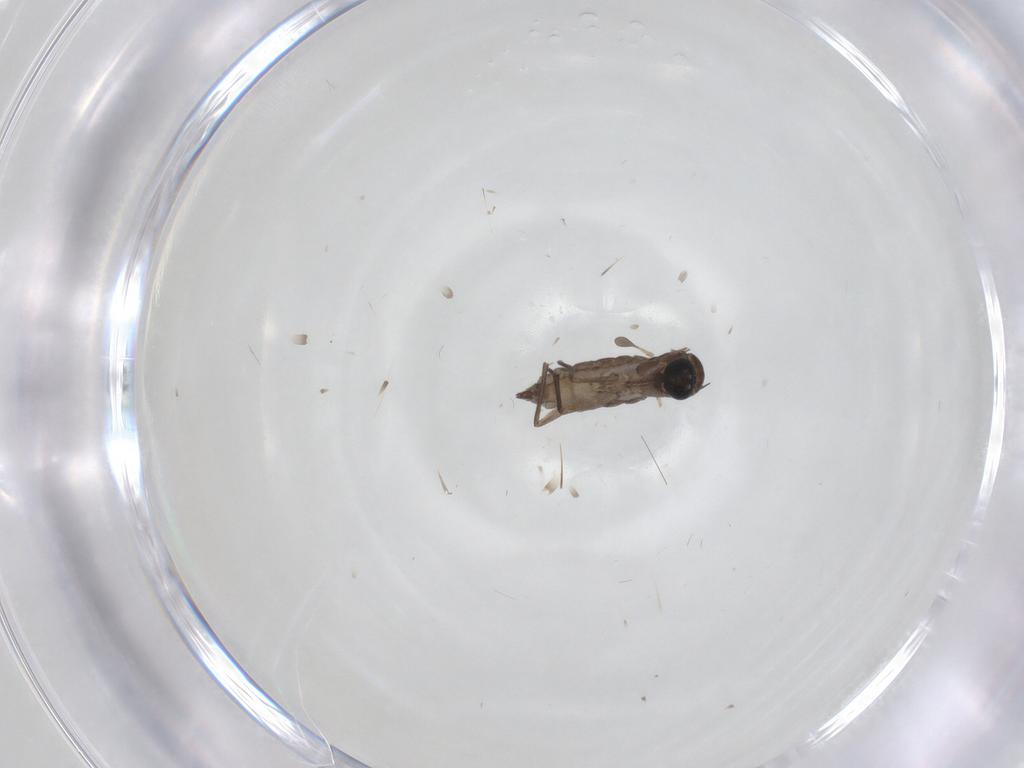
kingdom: Animalia
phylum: Arthropoda
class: Insecta
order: Diptera
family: Sciaridae
